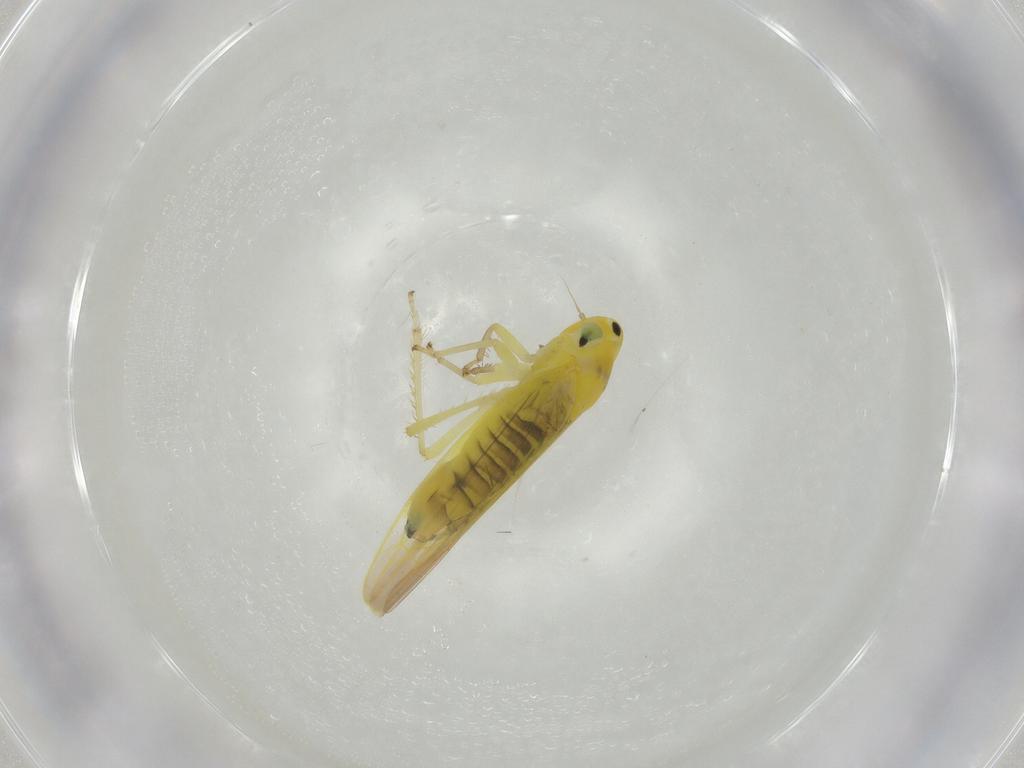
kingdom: Animalia
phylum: Arthropoda
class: Insecta
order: Hemiptera
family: Cicadellidae
